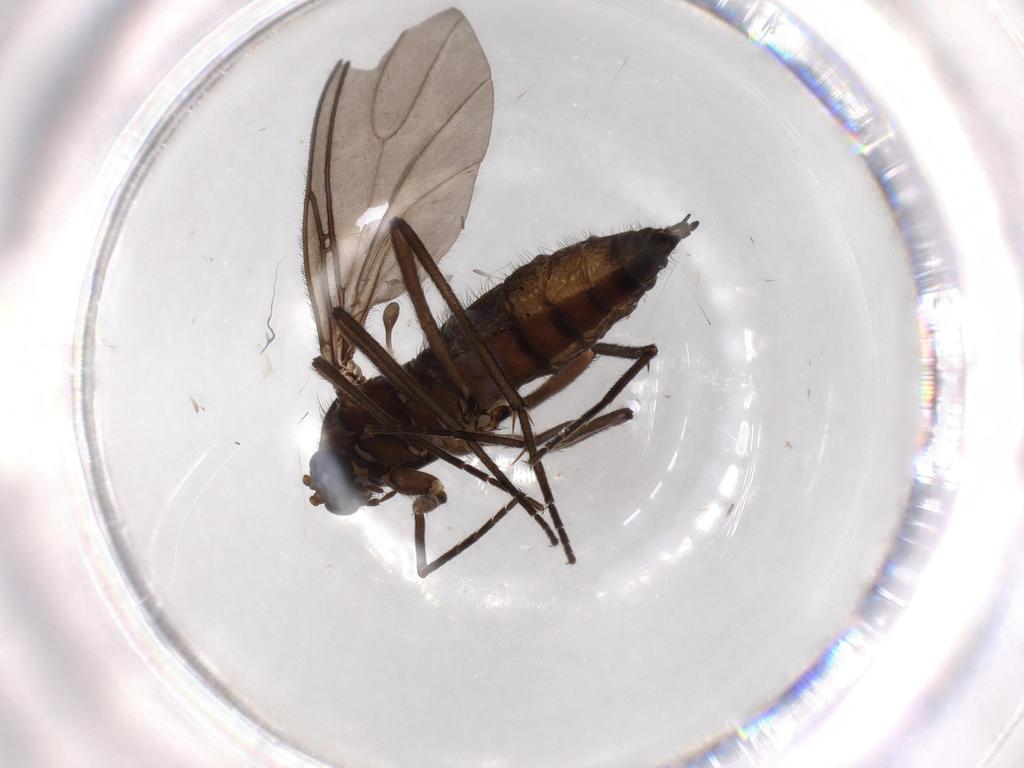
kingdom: Animalia
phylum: Arthropoda
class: Insecta
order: Diptera
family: Sciaridae
